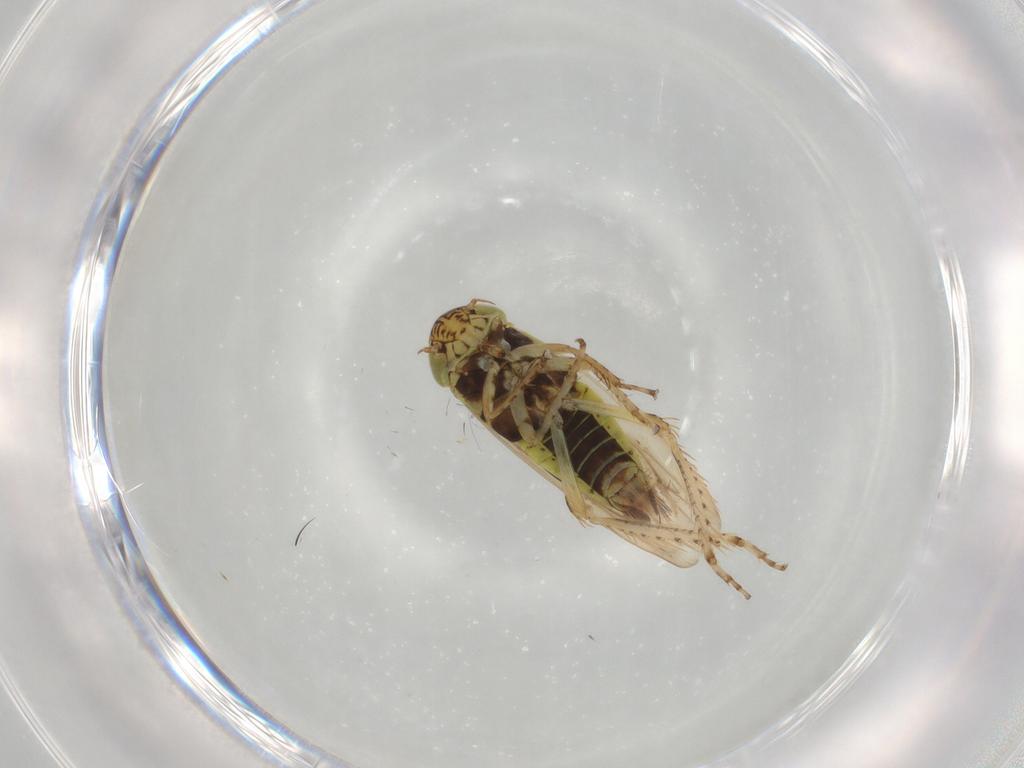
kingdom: Animalia
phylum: Arthropoda
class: Insecta
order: Hemiptera
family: Cicadellidae
